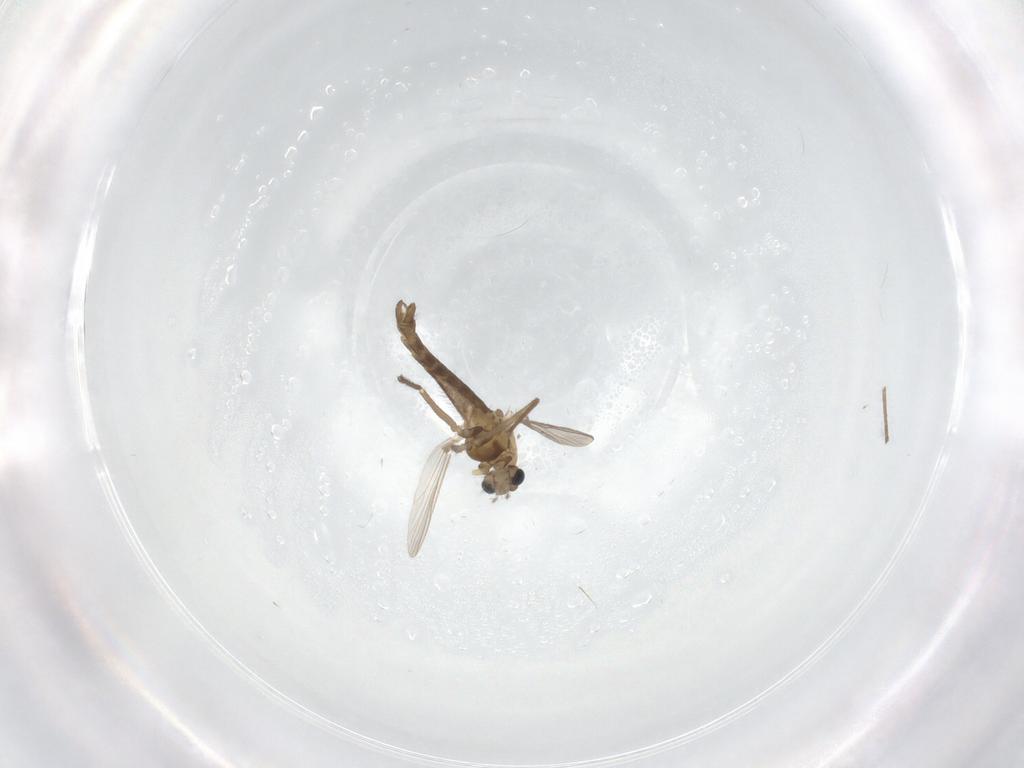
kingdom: Animalia
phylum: Arthropoda
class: Insecta
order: Diptera
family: Chironomidae
